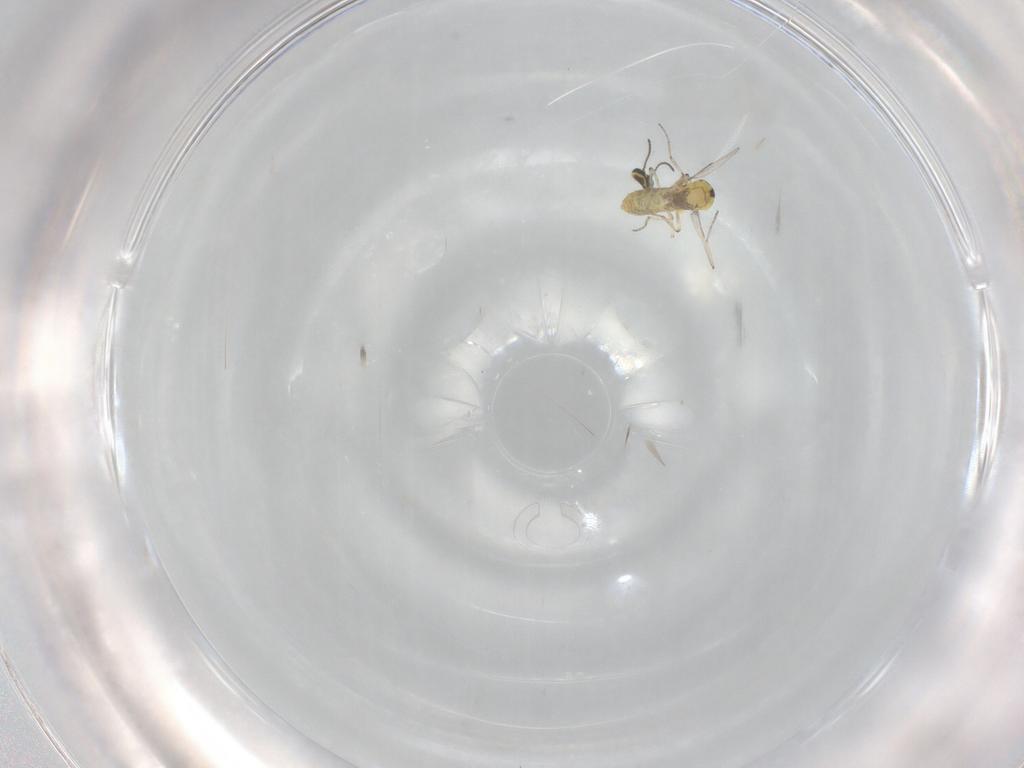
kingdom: Animalia
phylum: Arthropoda
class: Insecta
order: Diptera
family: Ceratopogonidae
